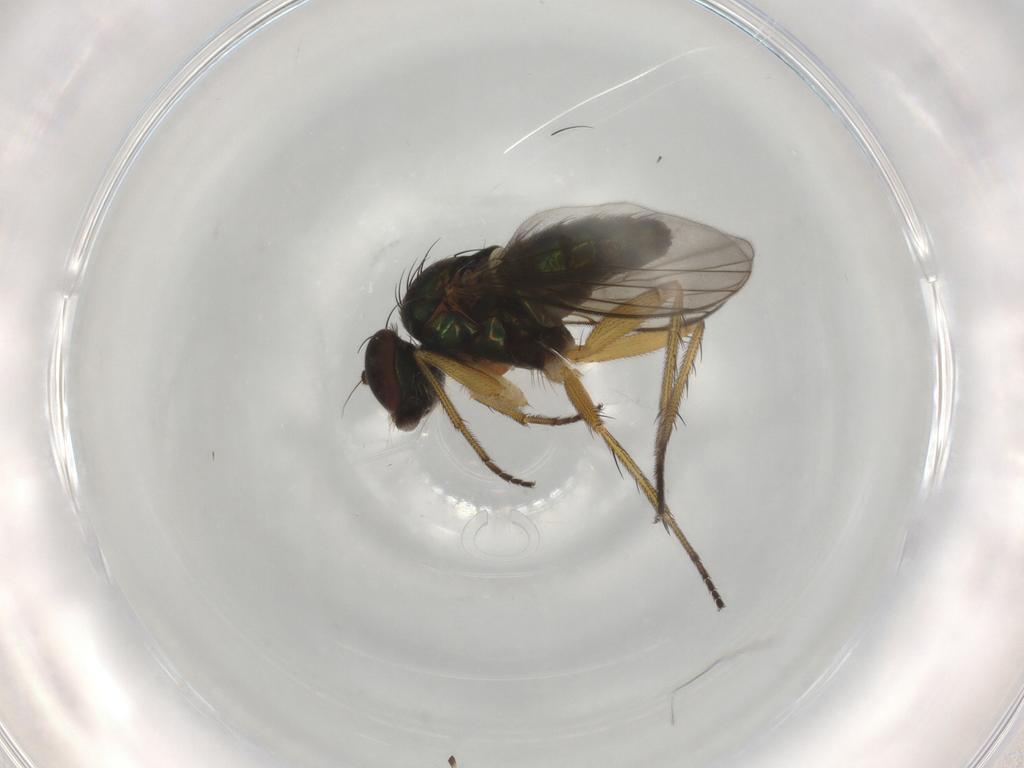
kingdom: Animalia
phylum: Arthropoda
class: Insecta
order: Diptera
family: Dolichopodidae
